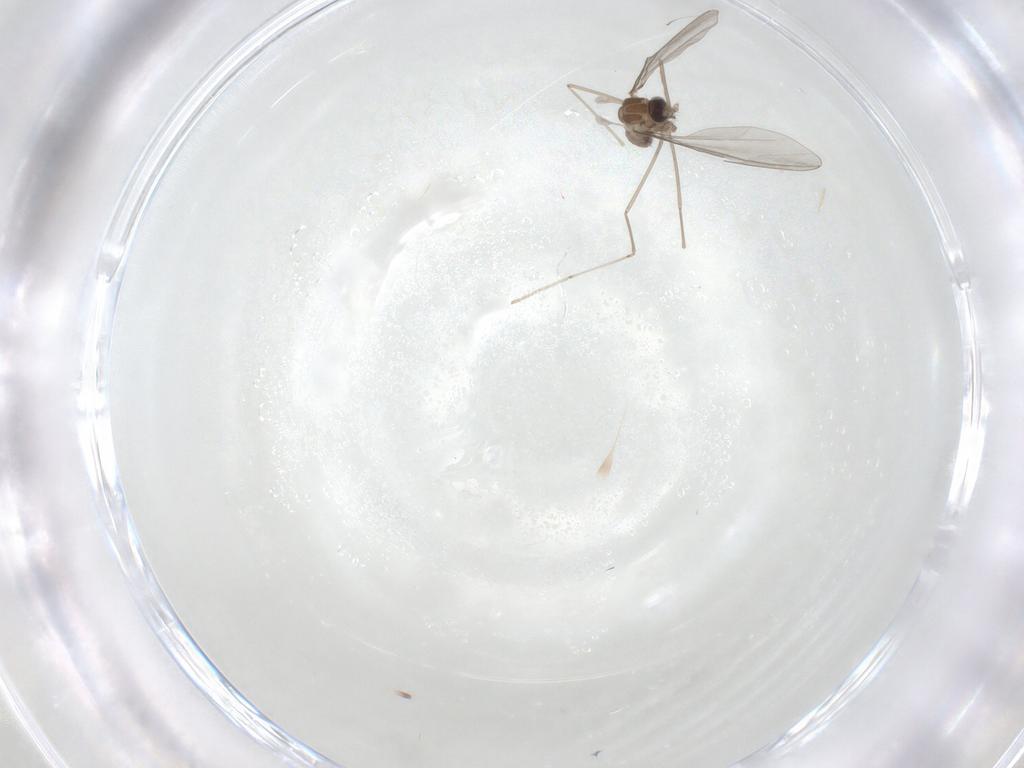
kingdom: Animalia
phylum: Arthropoda
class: Insecta
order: Diptera
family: Cecidomyiidae
